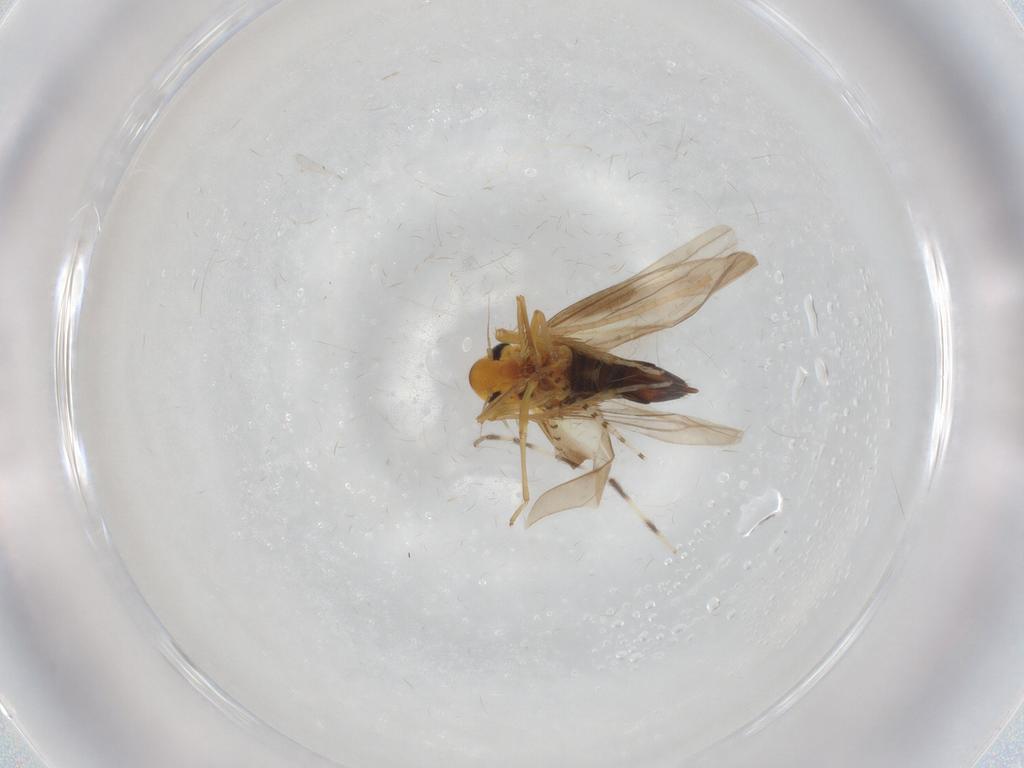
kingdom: Animalia
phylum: Arthropoda
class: Insecta
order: Hemiptera
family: Cicadellidae
